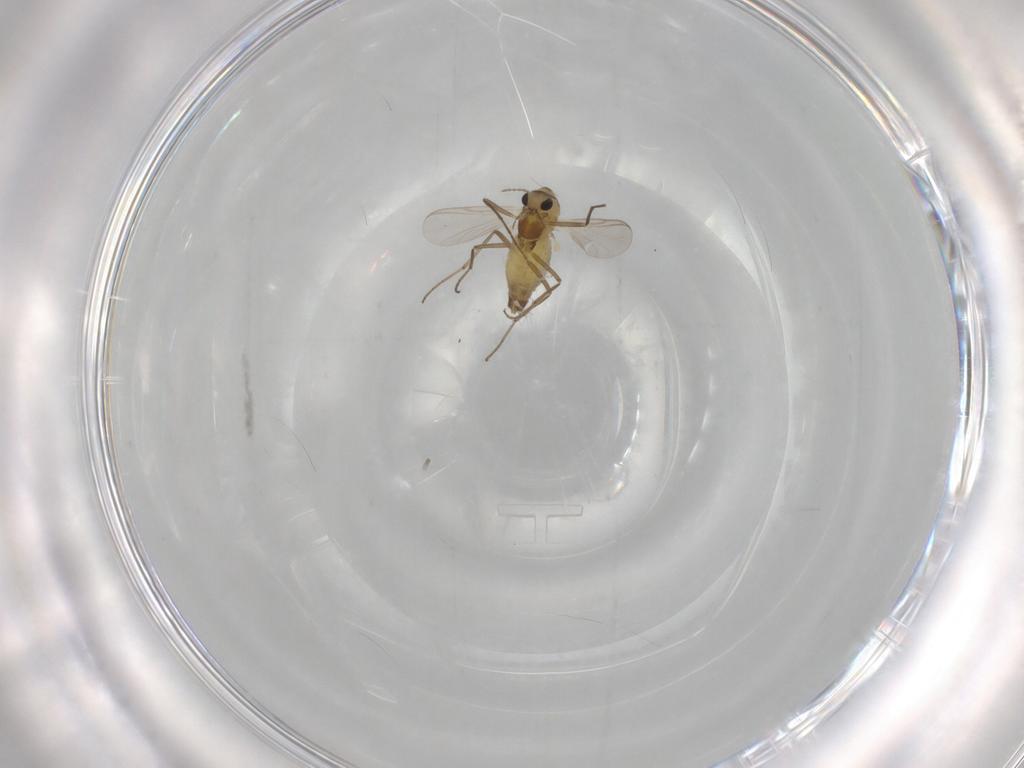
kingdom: Animalia
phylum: Arthropoda
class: Insecta
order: Diptera
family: Chironomidae
